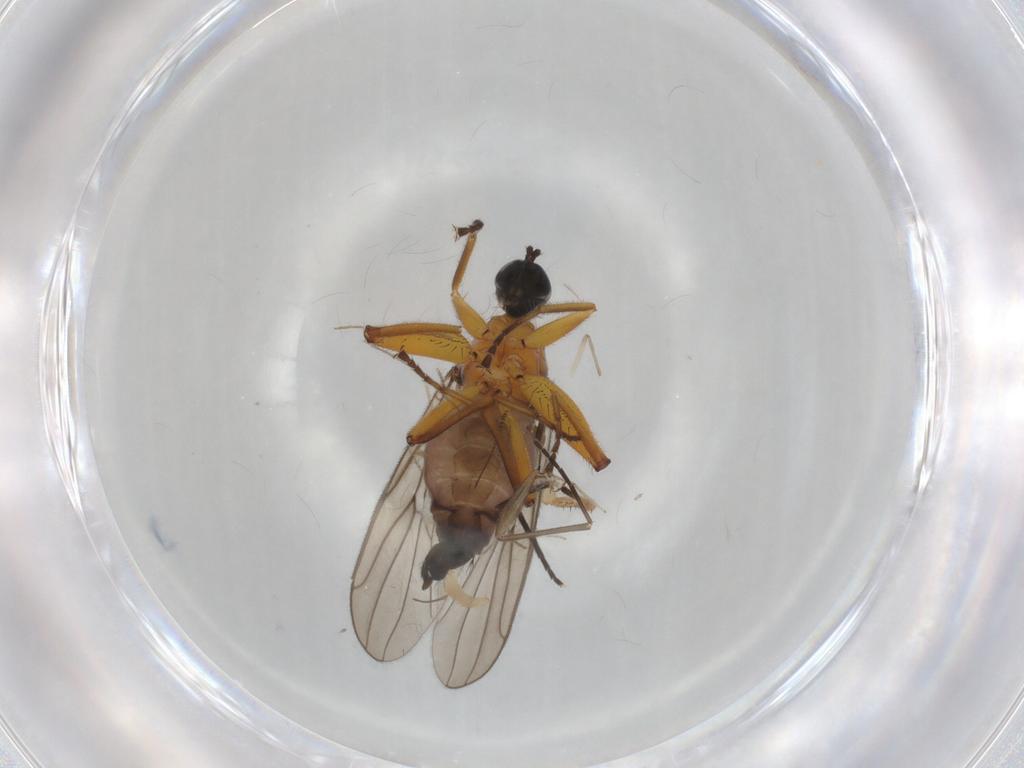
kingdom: Animalia
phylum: Arthropoda
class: Insecta
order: Diptera
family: Hybotidae
